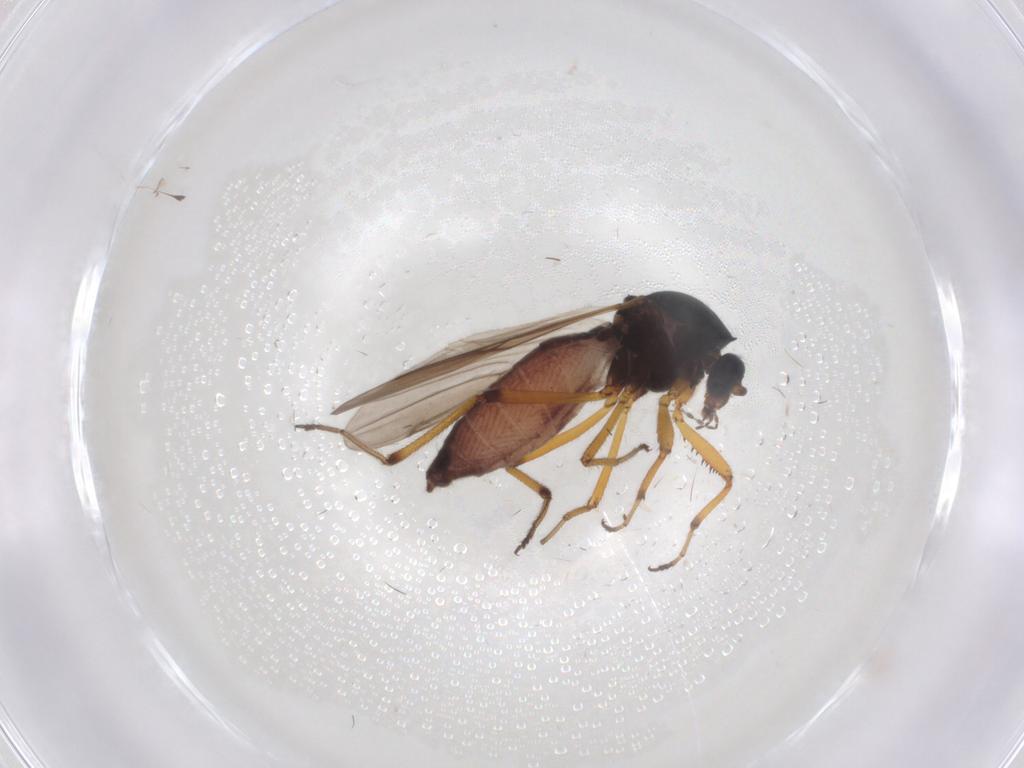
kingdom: Animalia
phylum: Arthropoda
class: Insecta
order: Diptera
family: Ceratopogonidae
